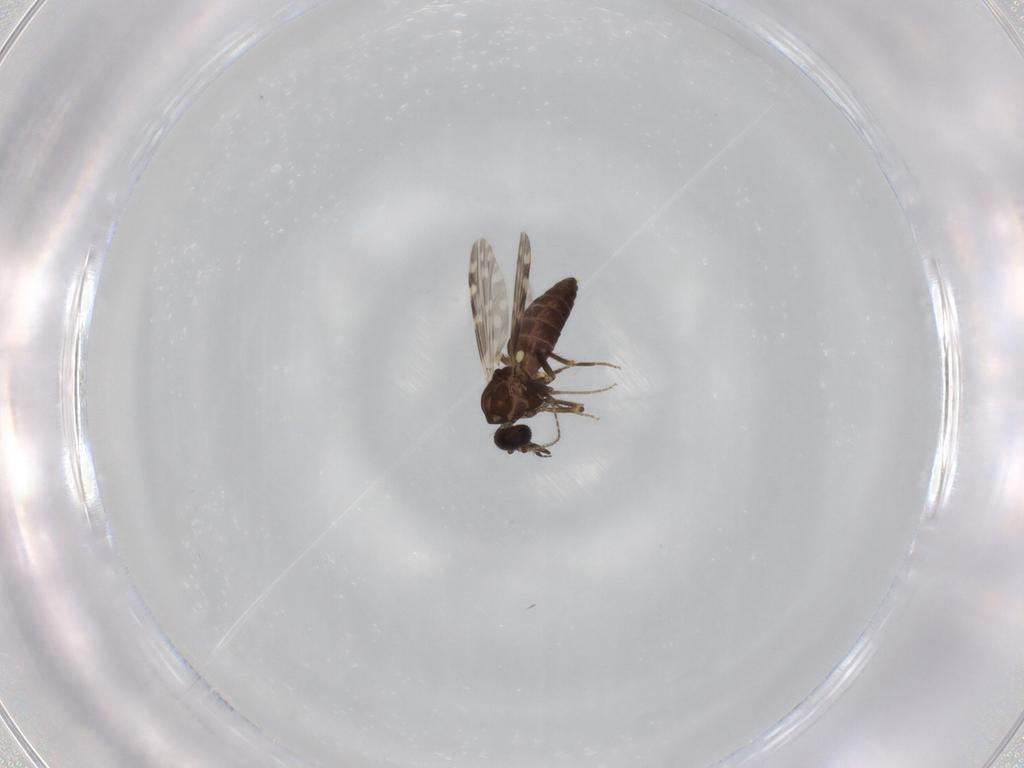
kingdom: Animalia
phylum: Arthropoda
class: Insecta
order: Diptera
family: Ceratopogonidae
